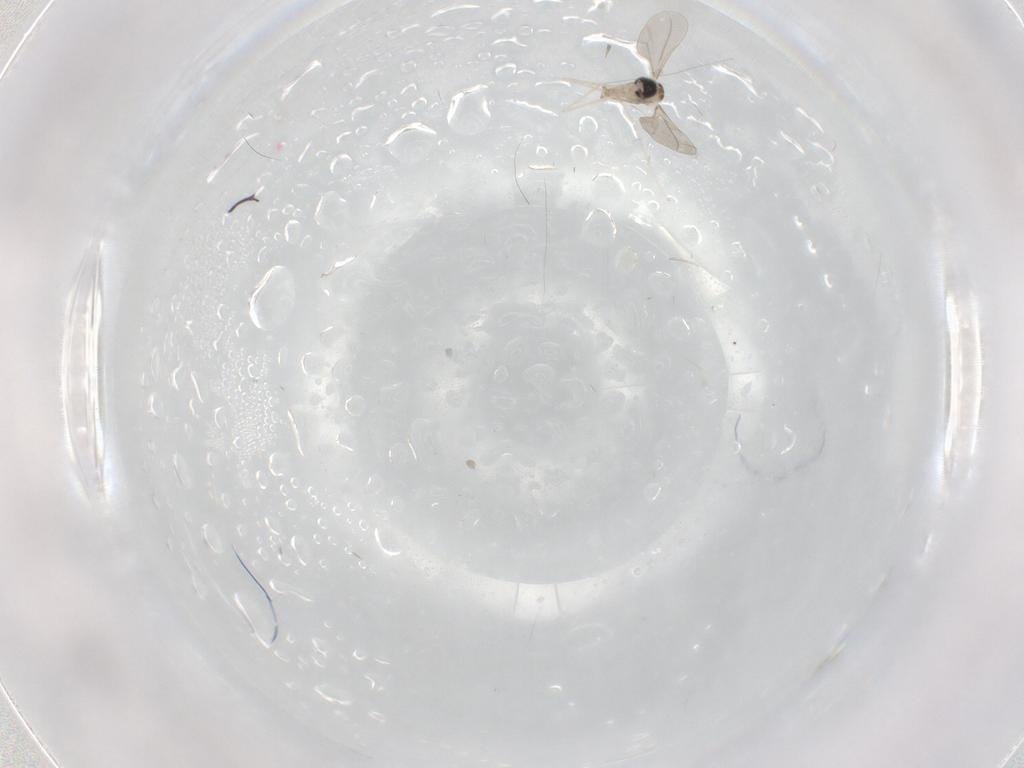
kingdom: Animalia
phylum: Arthropoda
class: Insecta
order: Diptera
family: Cecidomyiidae
